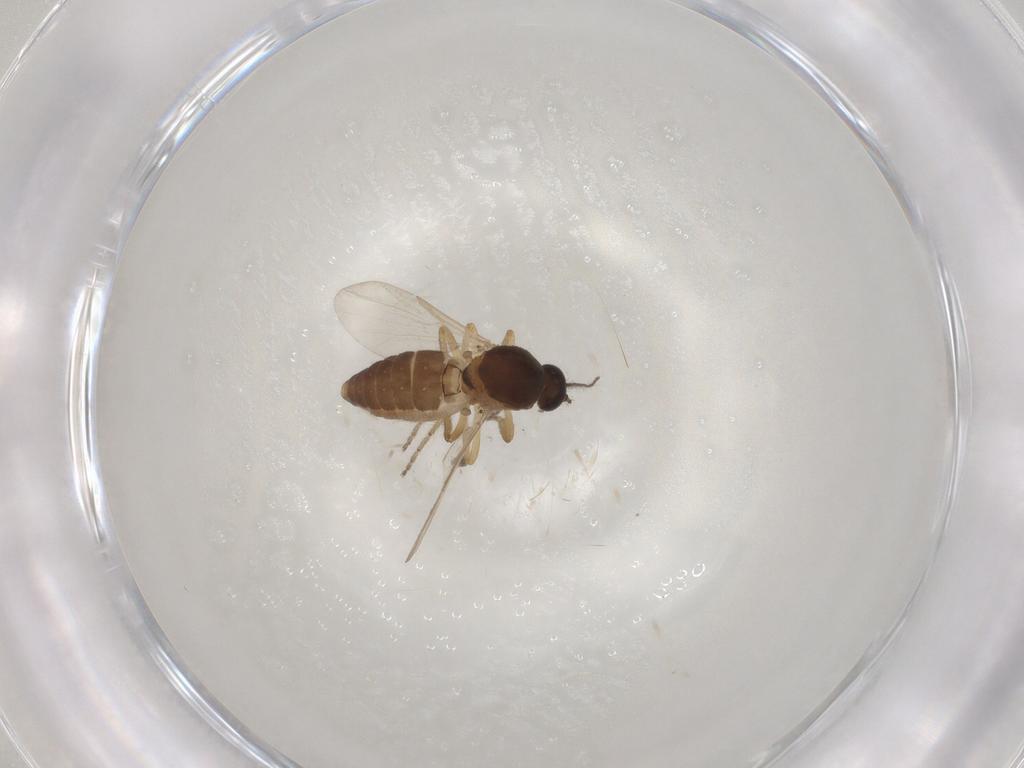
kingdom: Animalia
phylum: Arthropoda
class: Insecta
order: Diptera
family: Ceratopogonidae
